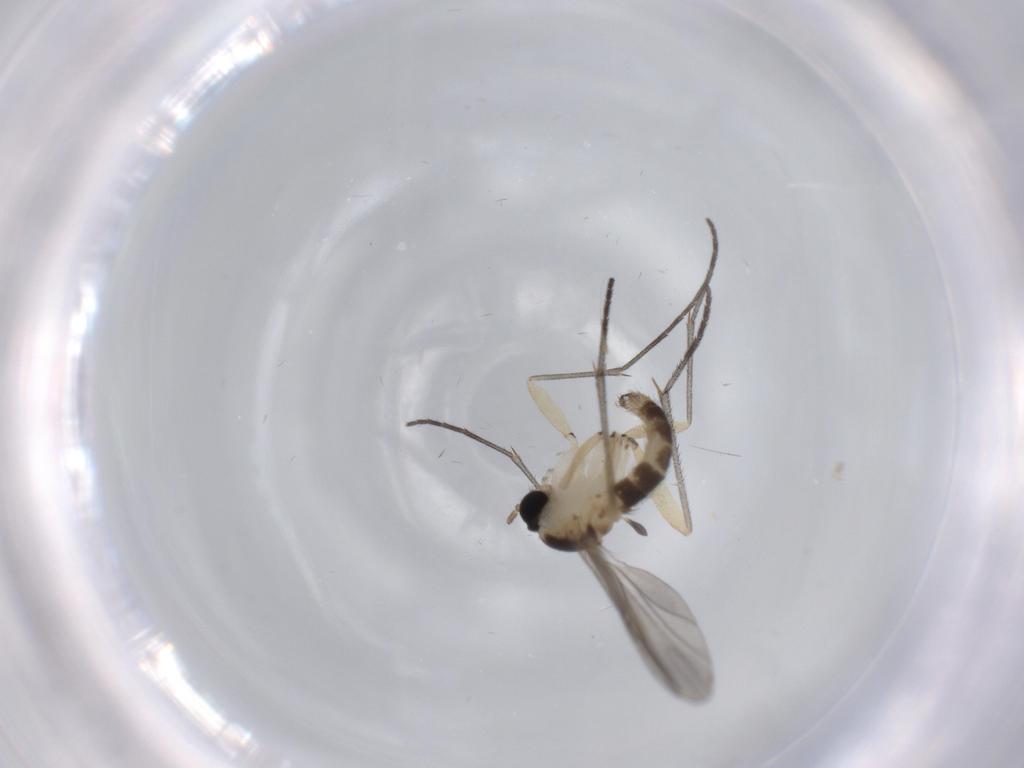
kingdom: Animalia
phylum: Arthropoda
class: Insecta
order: Diptera
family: Sciaridae
